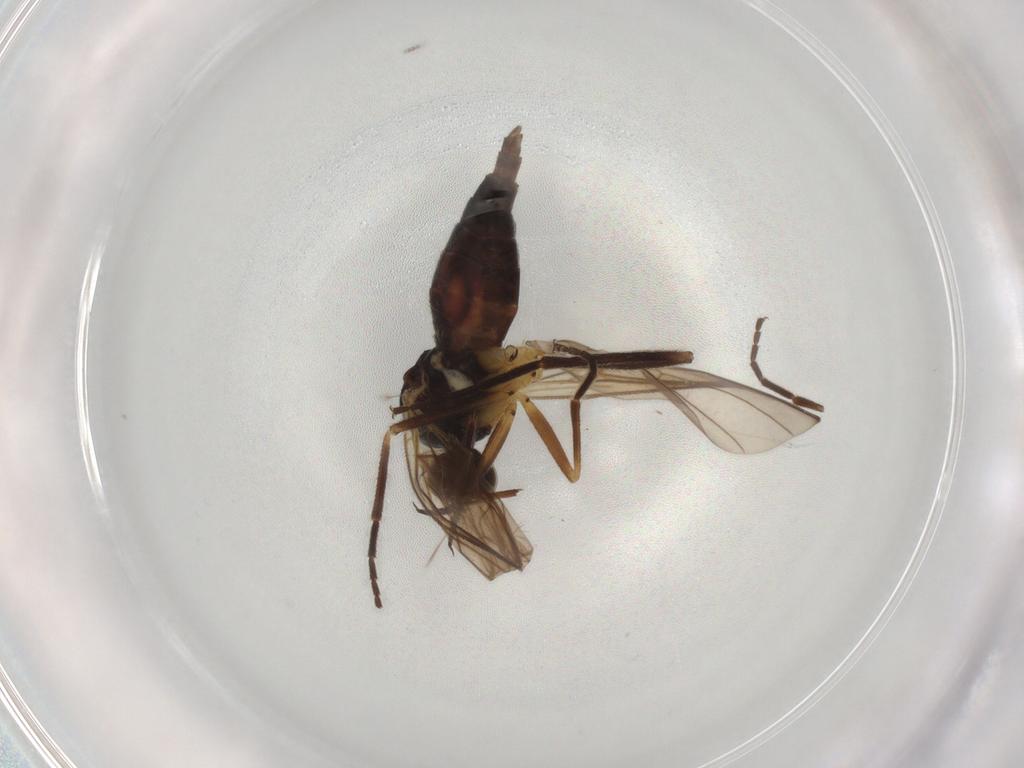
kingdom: Animalia
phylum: Arthropoda
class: Insecta
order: Diptera
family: Empididae
